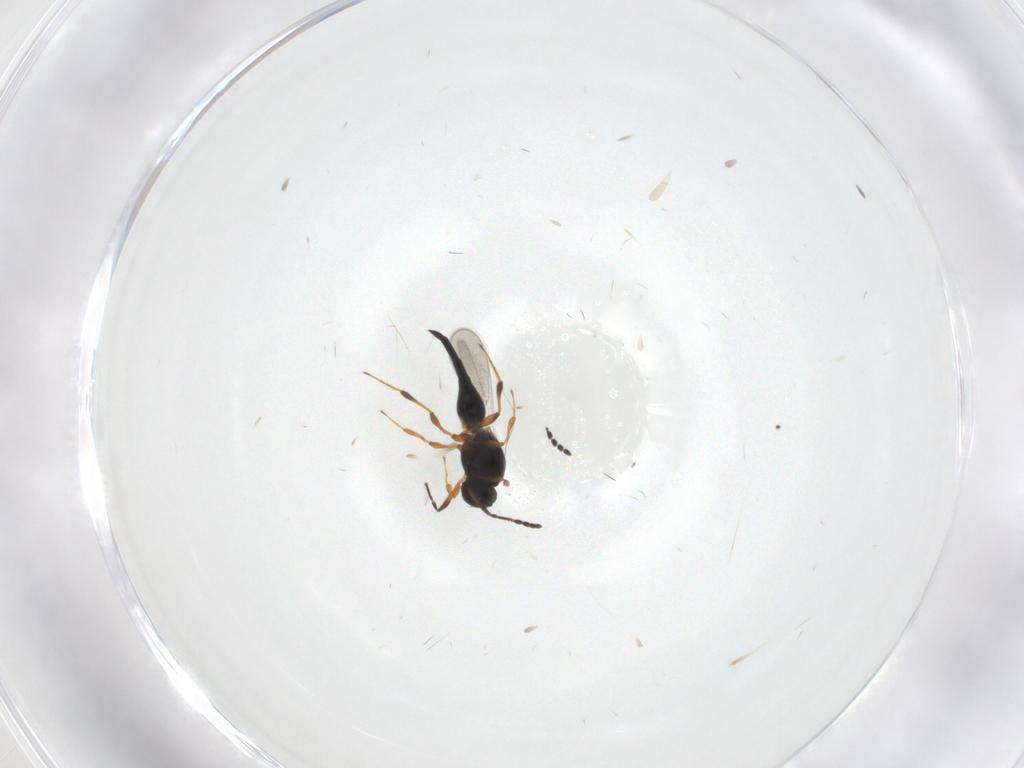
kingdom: Animalia
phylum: Arthropoda
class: Insecta
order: Hymenoptera
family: Platygastridae
